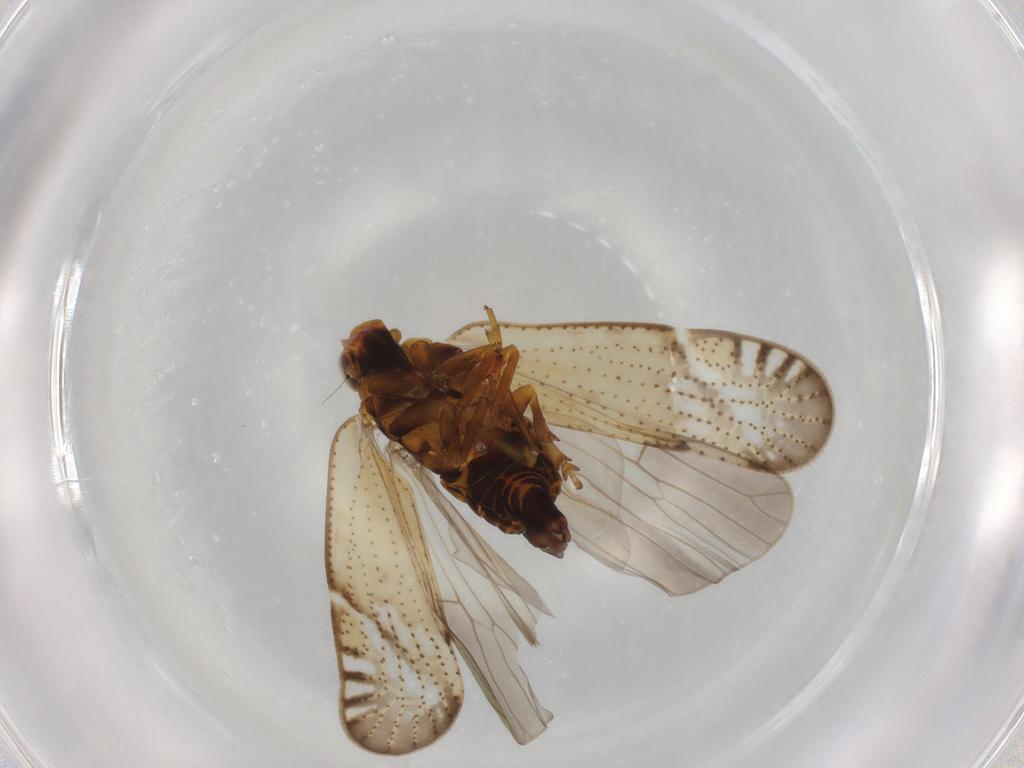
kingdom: Animalia
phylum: Arthropoda
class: Insecta
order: Hemiptera
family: Cixiidae
